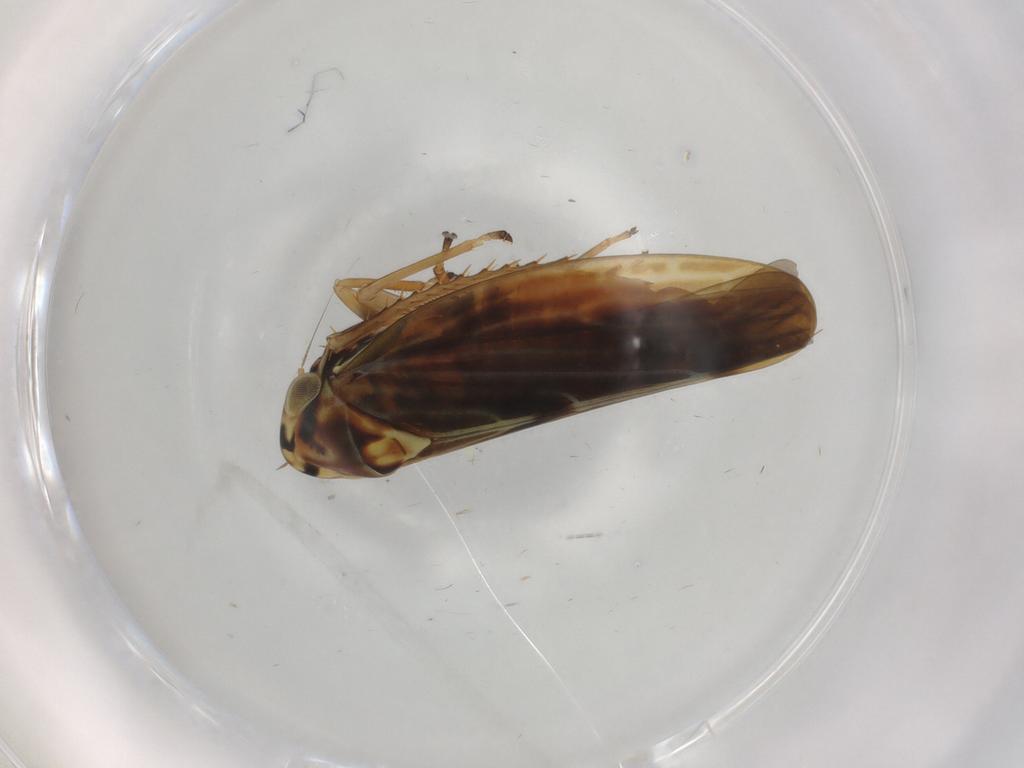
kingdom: Animalia
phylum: Arthropoda
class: Insecta
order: Hemiptera
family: Cicadellidae
